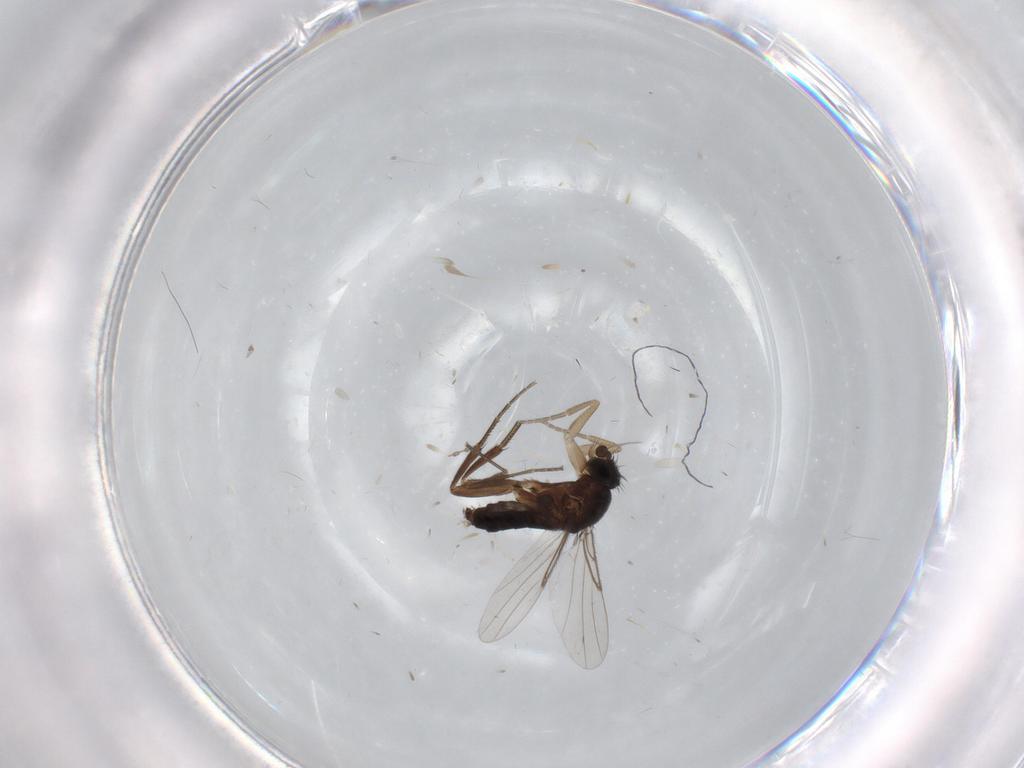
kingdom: Animalia
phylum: Arthropoda
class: Insecta
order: Diptera
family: Phoridae
